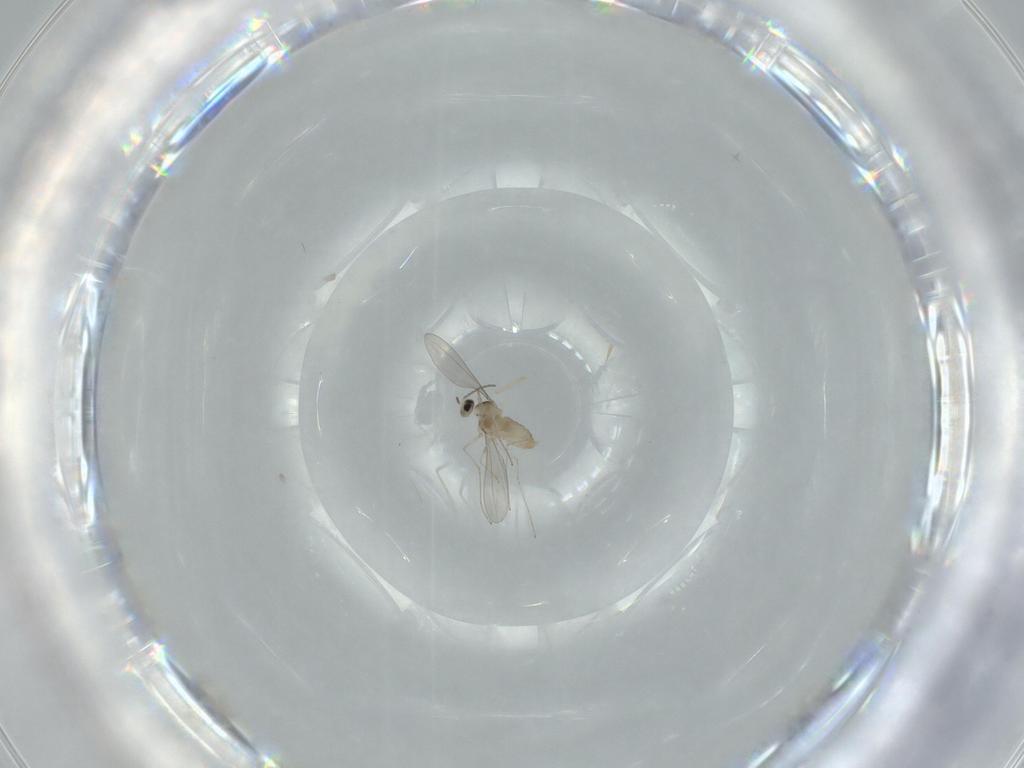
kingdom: Animalia
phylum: Arthropoda
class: Insecta
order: Diptera
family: Cecidomyiidae
